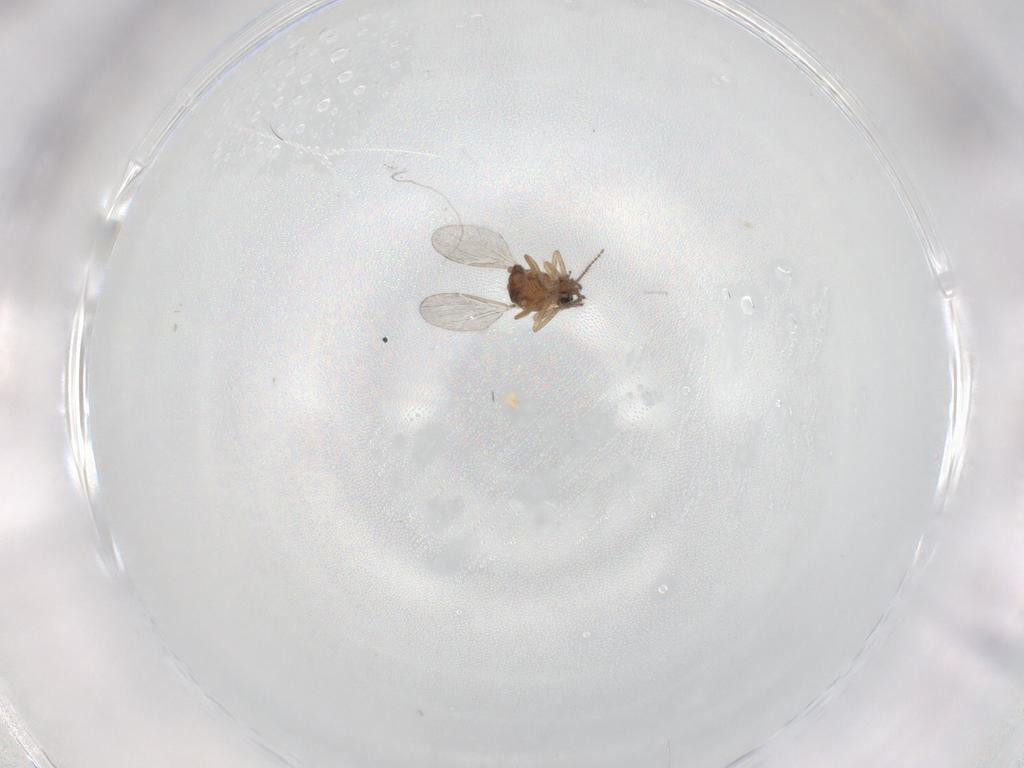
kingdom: Animalia
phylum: Arthropoda
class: Insecta
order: Diptera
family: Ceratopogonidae
